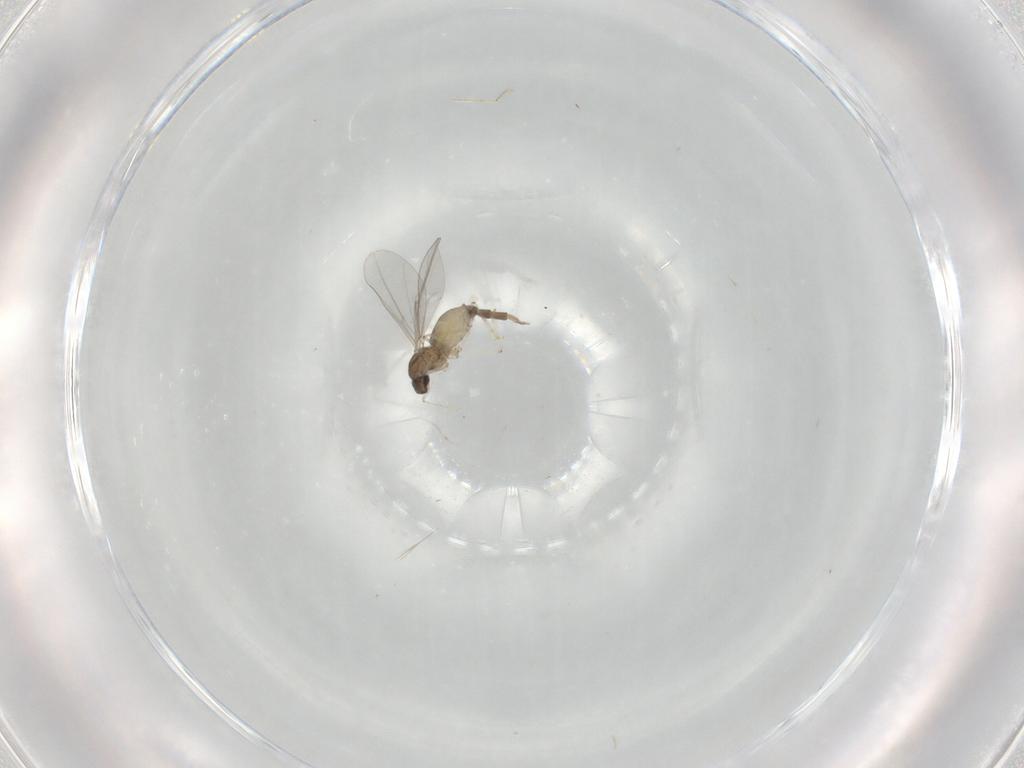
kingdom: Animalia
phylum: Arthropoda
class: Insecta
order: Diptera
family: Cecidomyiidae
